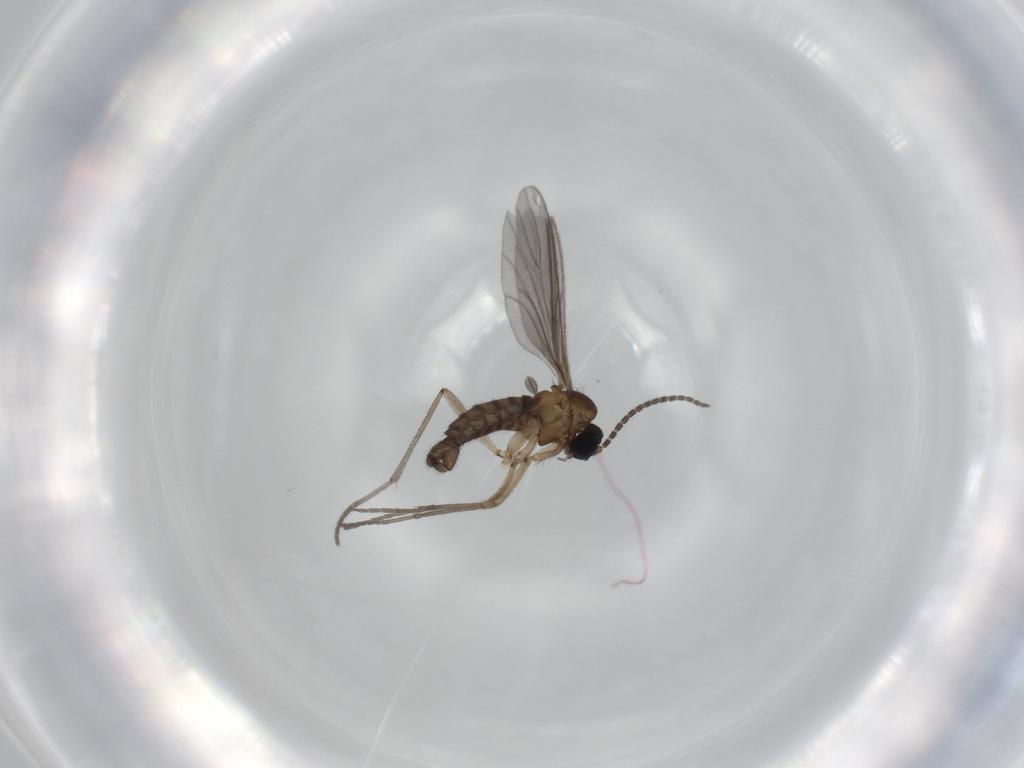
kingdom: Animalia
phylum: Arthropoda
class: Insecta
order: Diptera
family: Sciaridae
